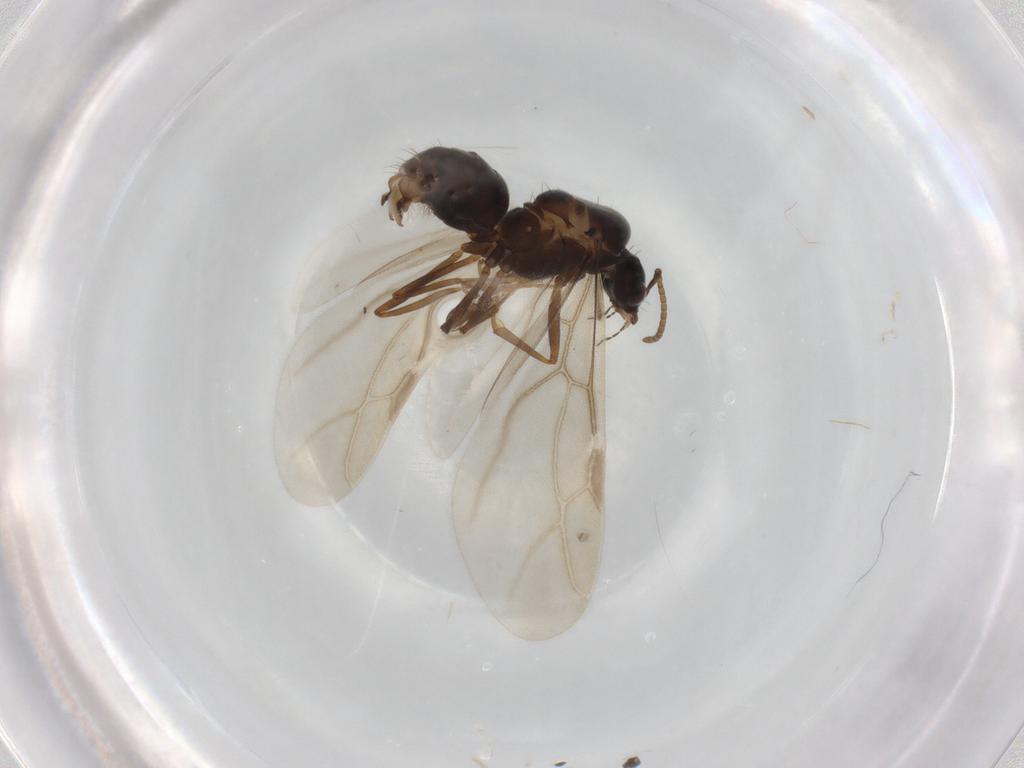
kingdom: Animalia
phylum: Arthropoda
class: Insecta
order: Hymenoptera
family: Formicidae
